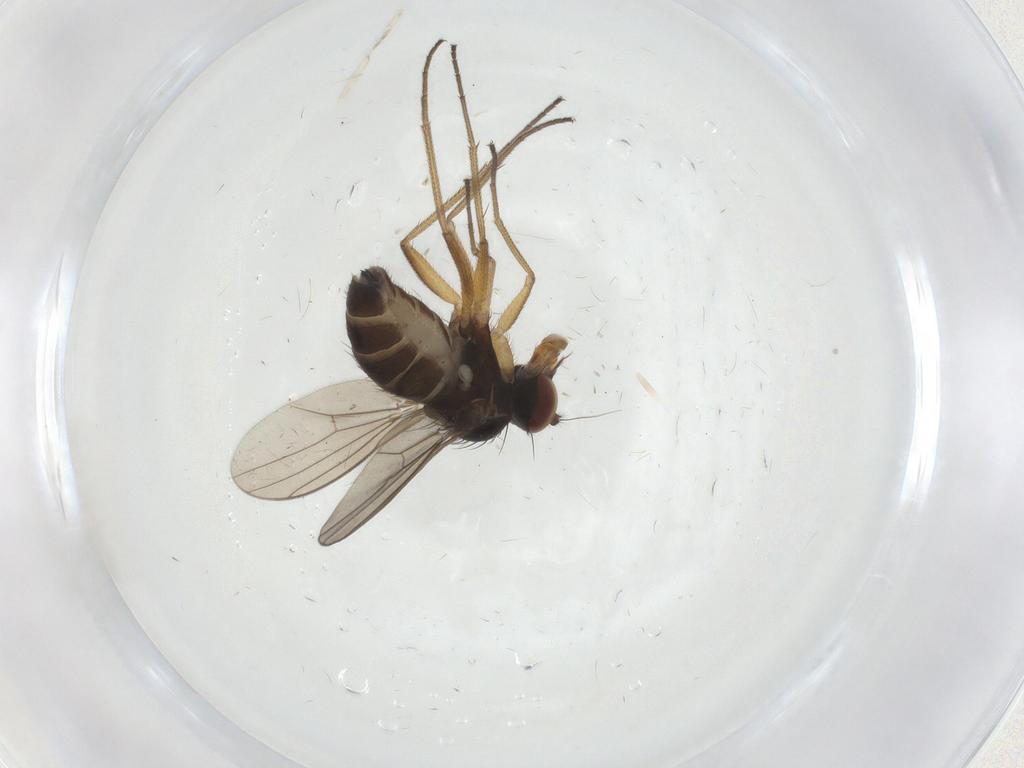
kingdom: Animalia
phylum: Arthropoda
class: Insecta
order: Diptera
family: Dolichopodidae
